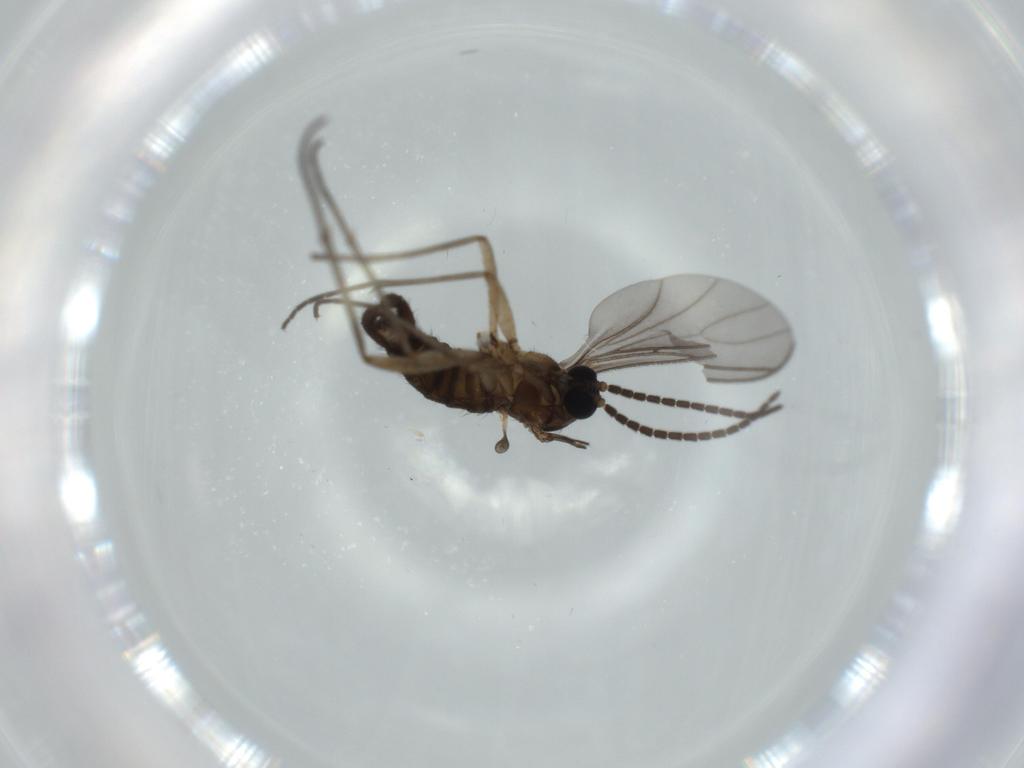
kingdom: Animalia
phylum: Arthropoda
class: Insecta
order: Diptera
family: Sciaridae
